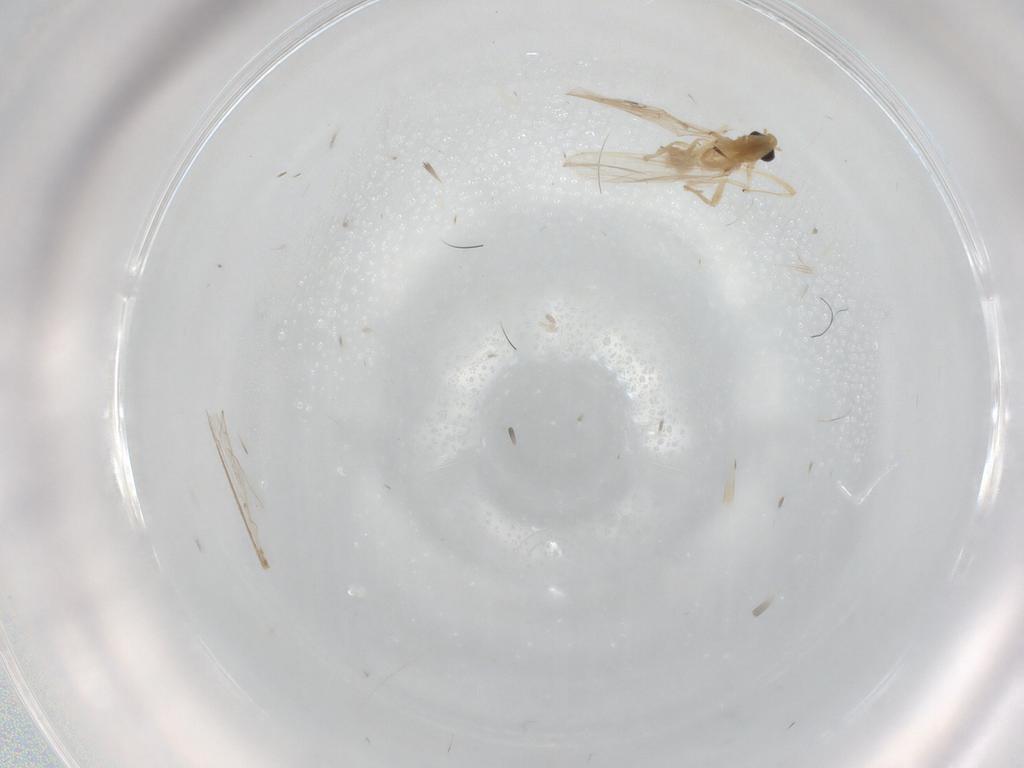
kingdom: Animalia
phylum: Arthropoda
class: Insecta
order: Diptera
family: Chironomidae
